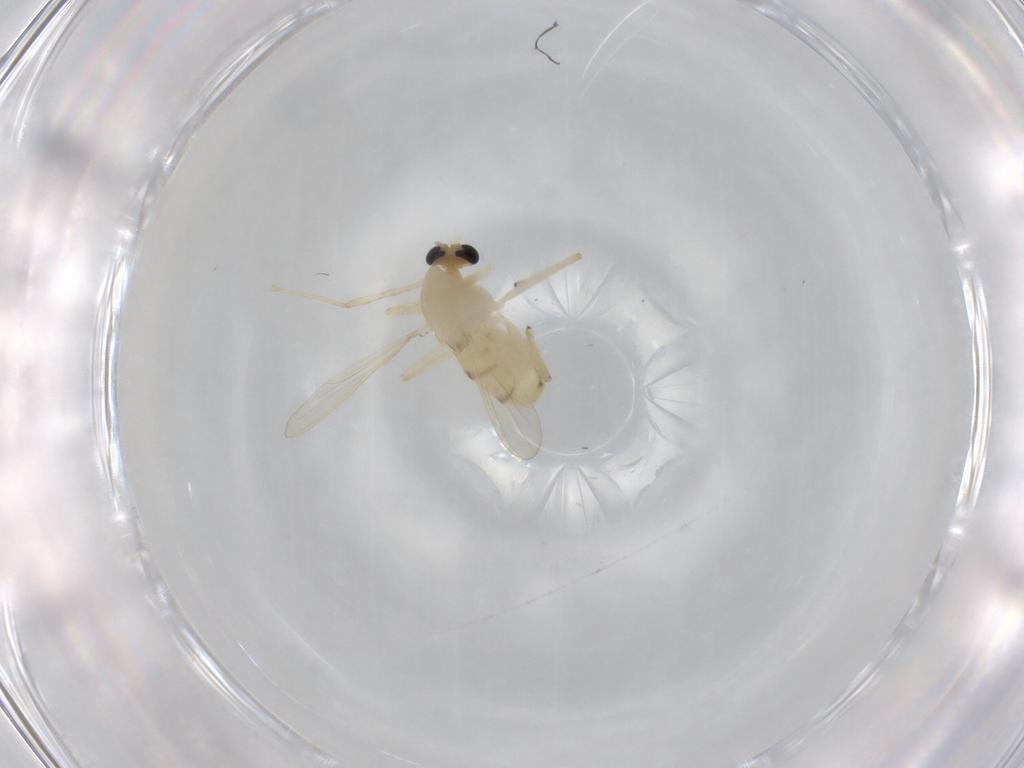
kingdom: Animalia
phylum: Arthropoda
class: Insecta
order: Diptera
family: Chironomidae
